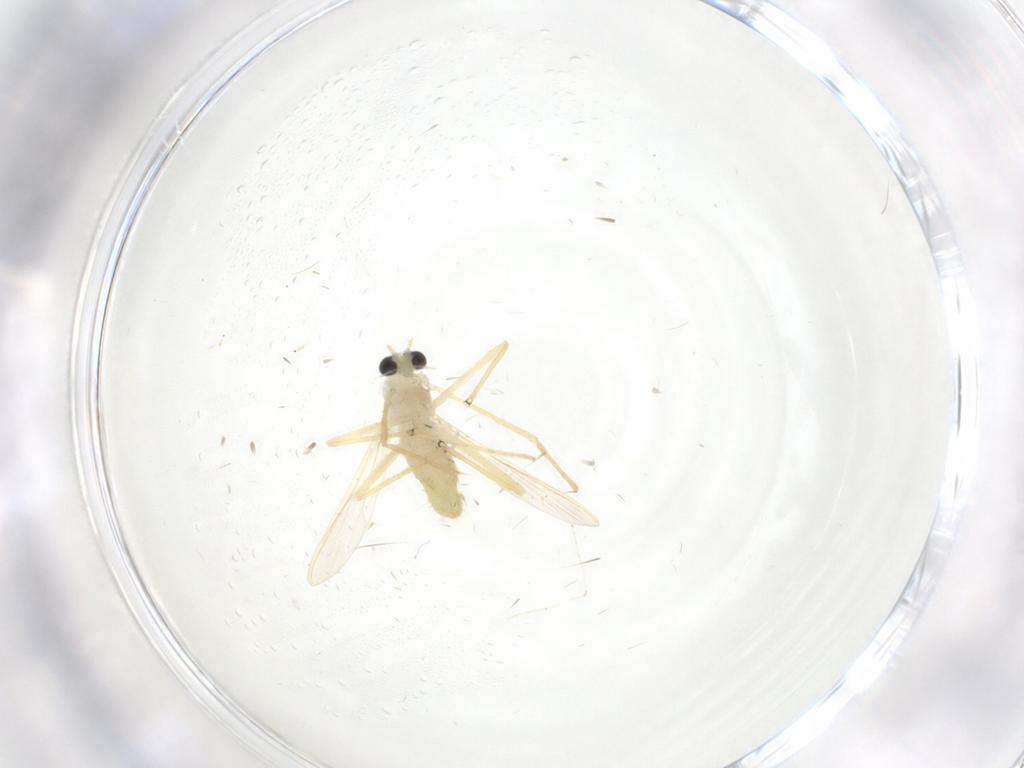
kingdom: Animalia
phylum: Arthropoda
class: Insecta
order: Diptera
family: Chironomidae
